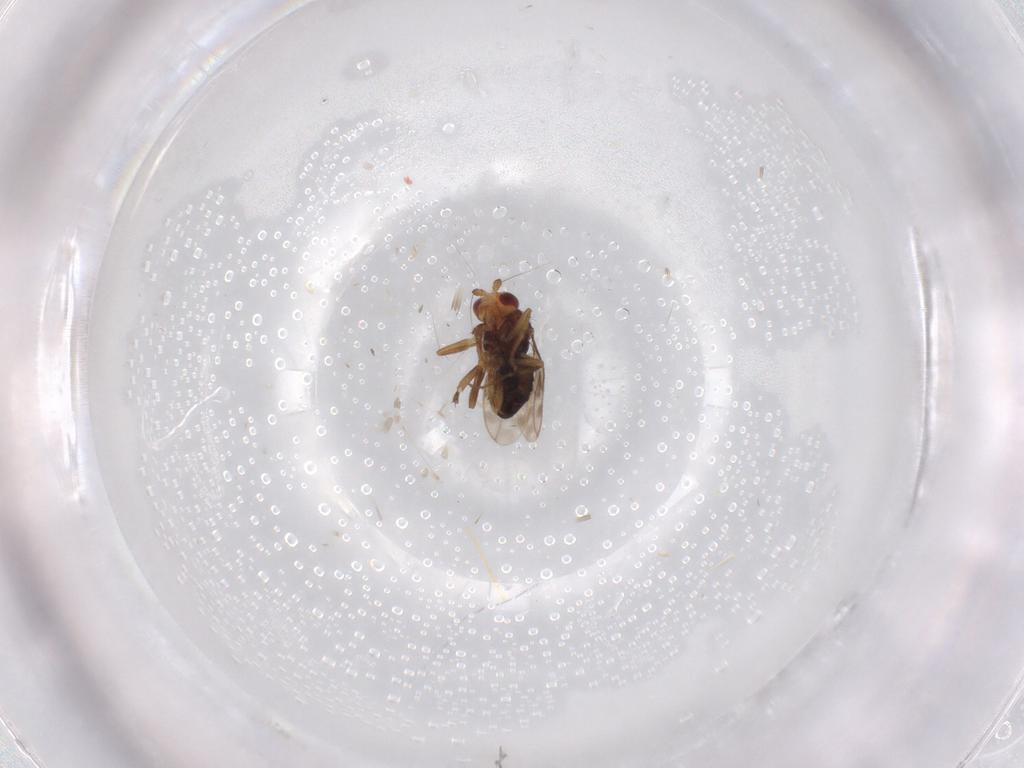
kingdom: Animalia
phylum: Arthropoda
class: Insecta
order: Diptera
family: Sphaeroceridae
